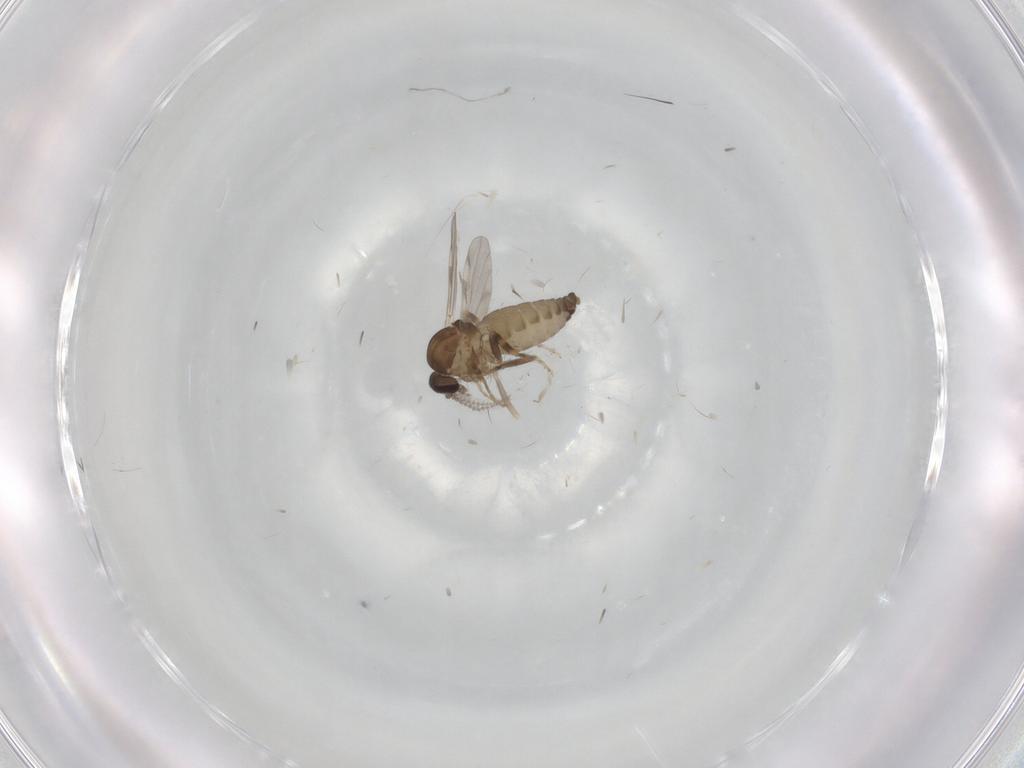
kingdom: Animalia
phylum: Arthropoda
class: Insecta
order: Diptera
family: Ceratopogonidae
